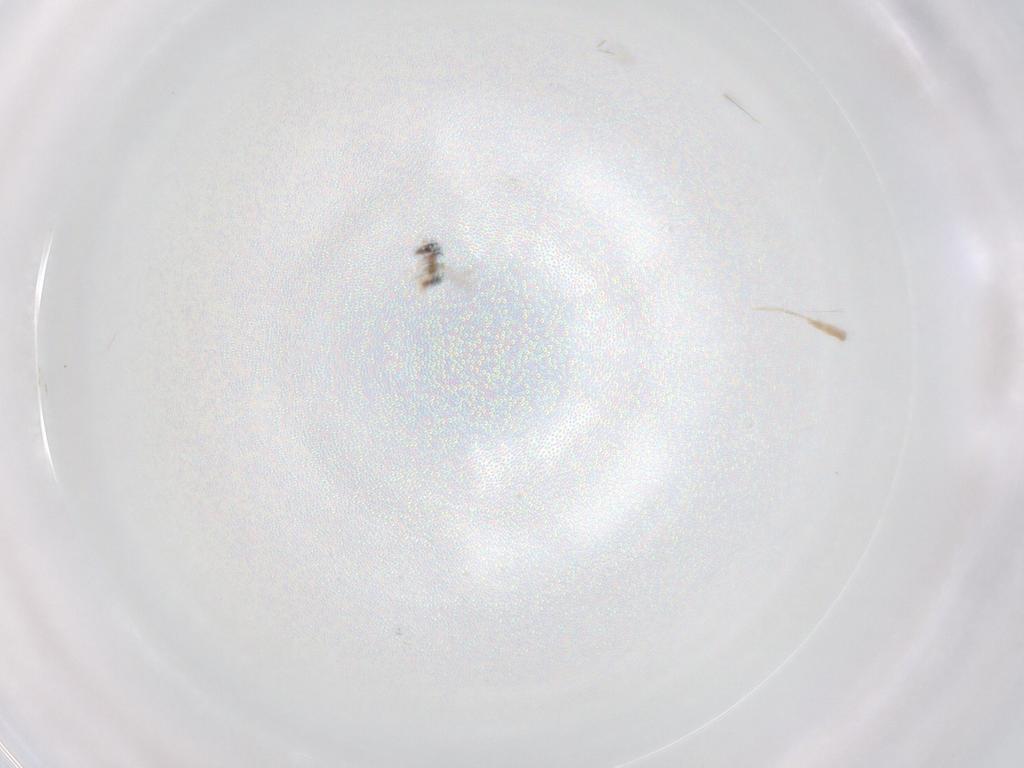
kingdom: Animalia
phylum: Arthropoda
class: Insecta
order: Hymenoptera
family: Mymaridae
